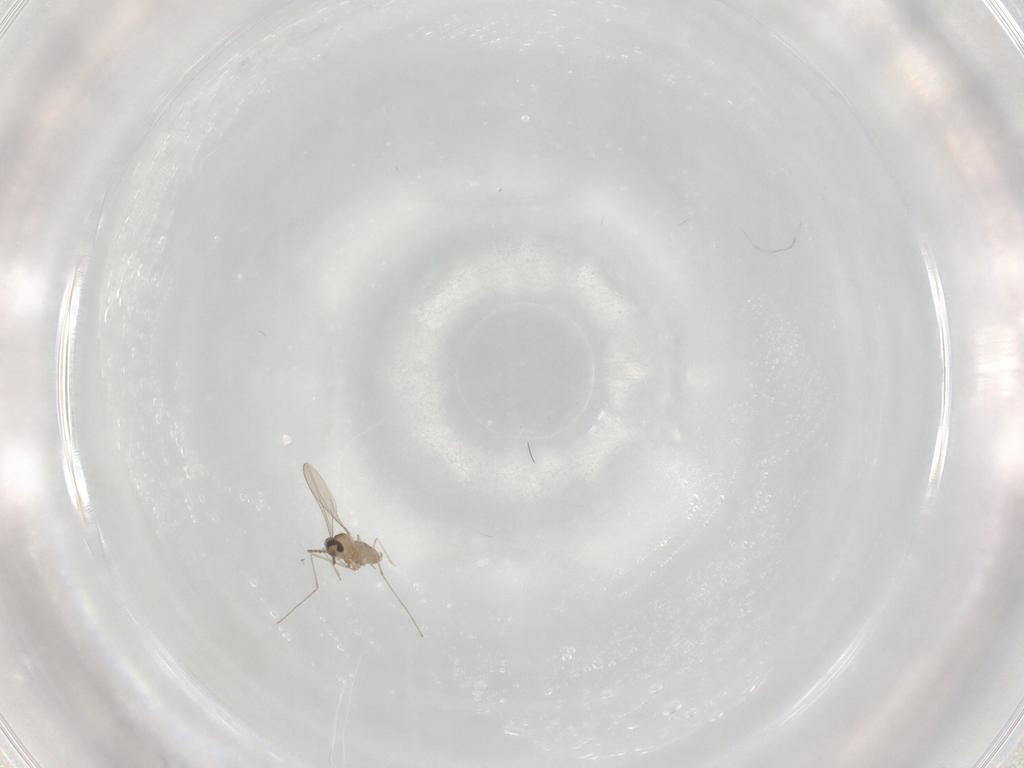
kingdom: Animalia
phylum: Arthropoda
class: Insecta
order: Diptera
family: Cecidomyiidae
